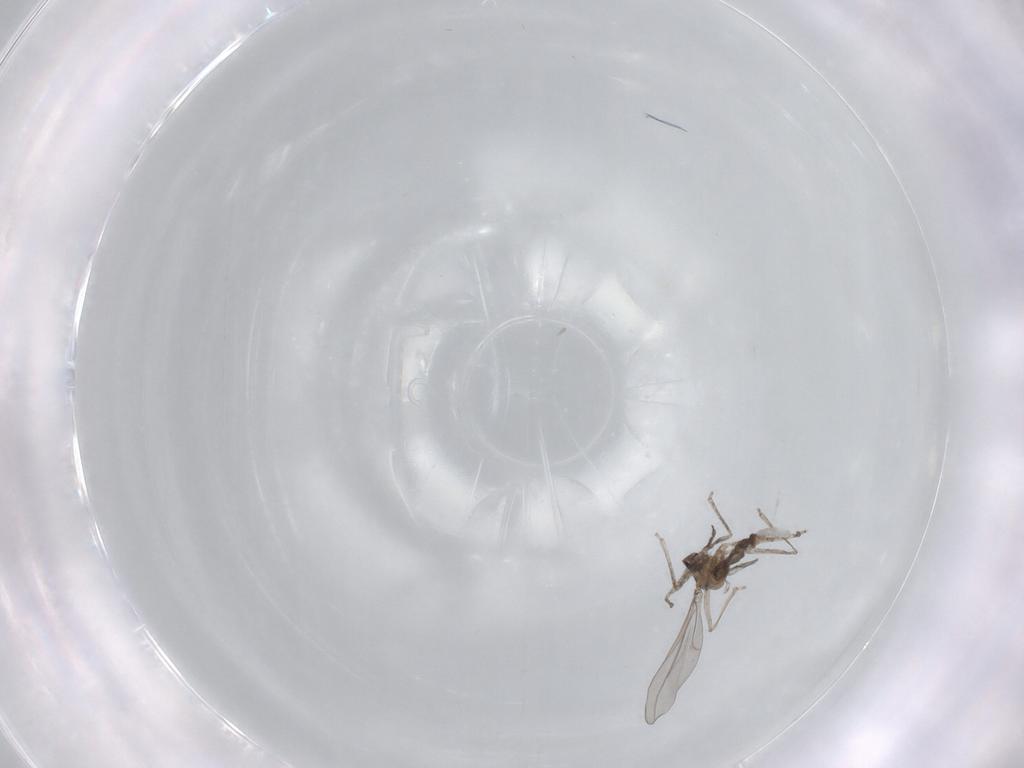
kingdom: Animalia
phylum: Arthropoda
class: Insecta
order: Diptera
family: Cecidomyiidae
